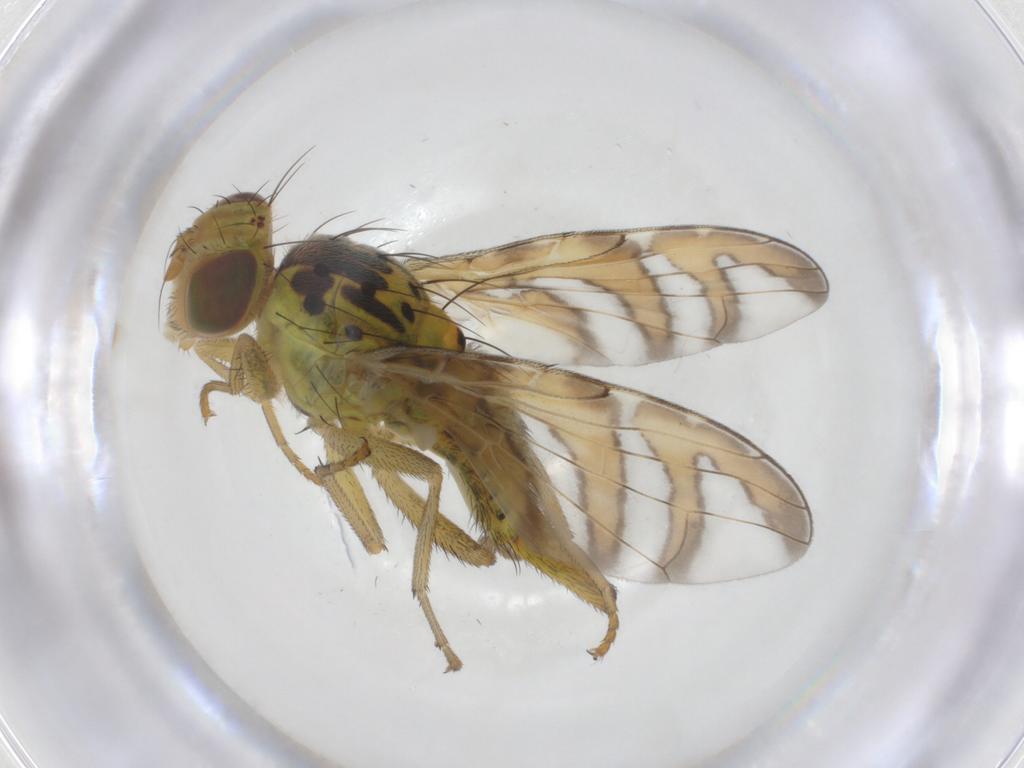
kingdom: Animalia
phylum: Arthropoda
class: Insecta
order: Diptera
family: Tephritidae
